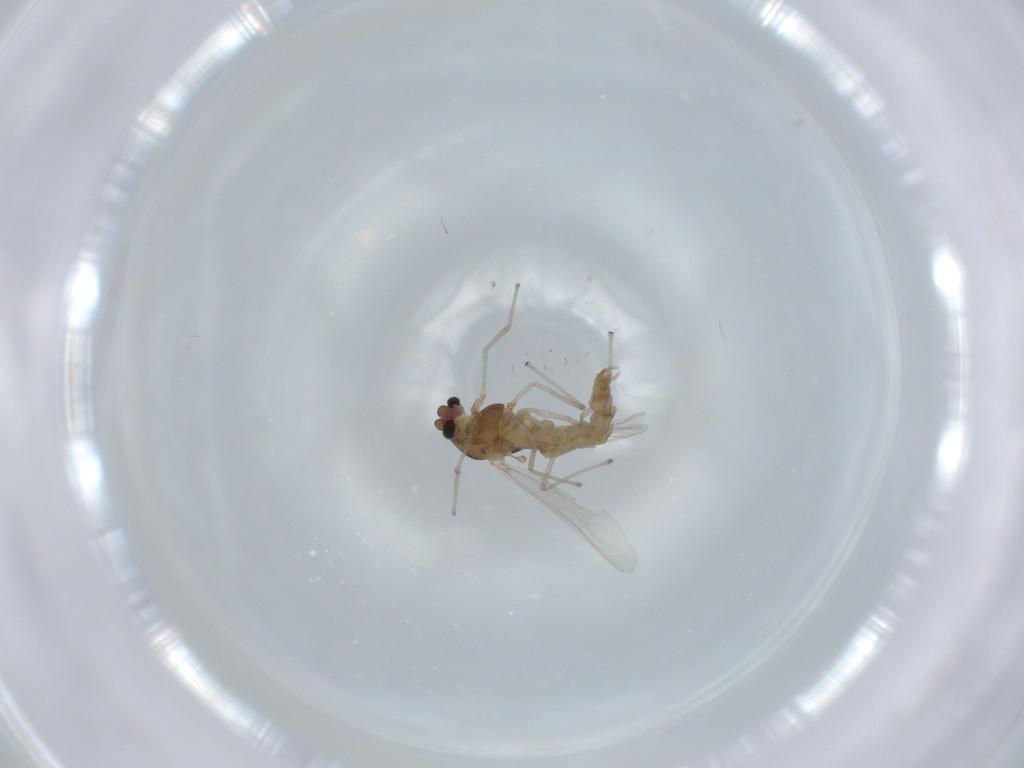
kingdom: Animalia
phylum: Arthropoda
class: Insecta
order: Diptera
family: Chironomidae
